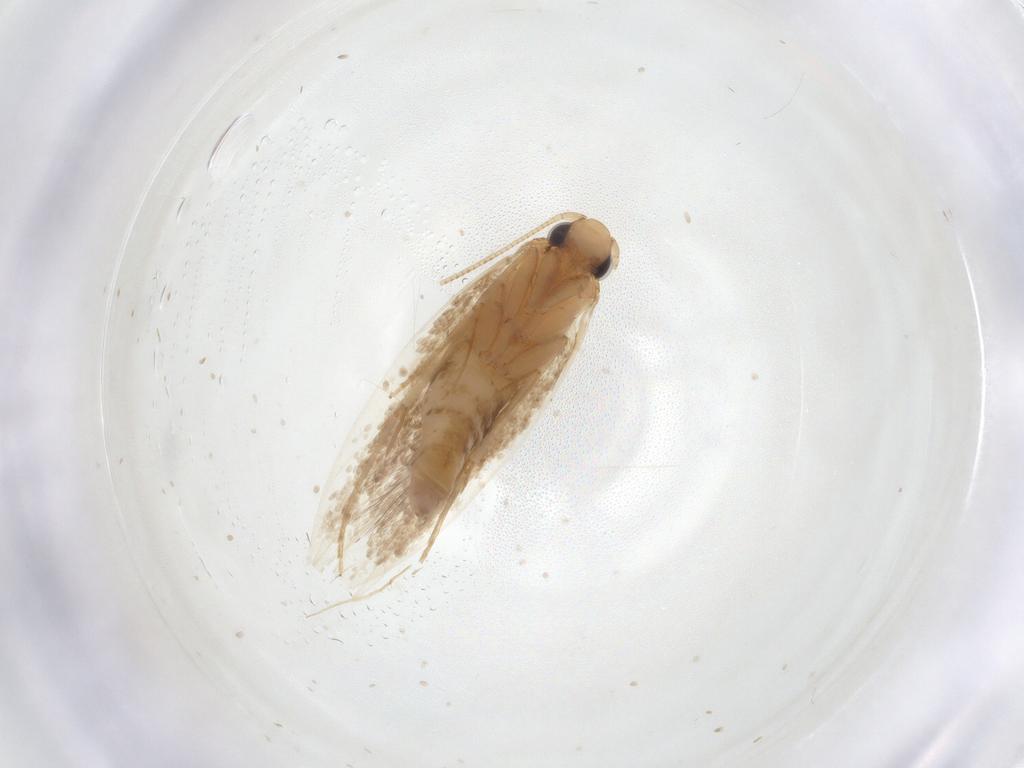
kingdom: Animalia
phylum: Arthropoda
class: Insecta
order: Lepidoptera
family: Tineidae
